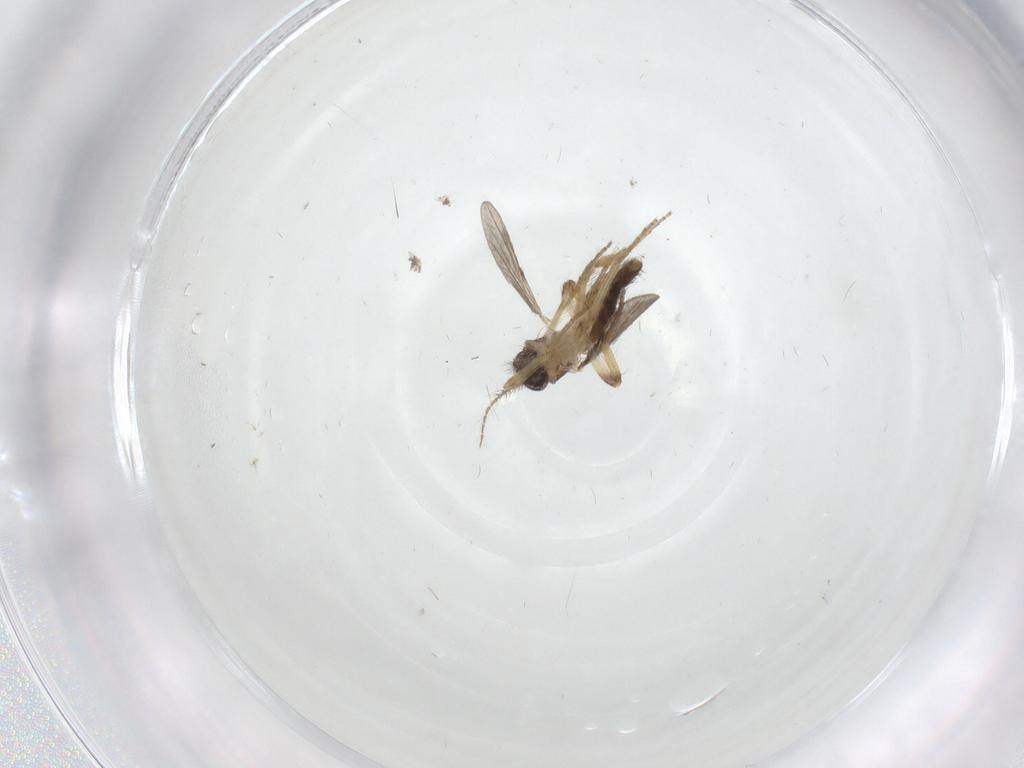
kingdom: Animalia
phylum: Arthropoda
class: Insecta
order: Diptera
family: Ceratopogonidae
